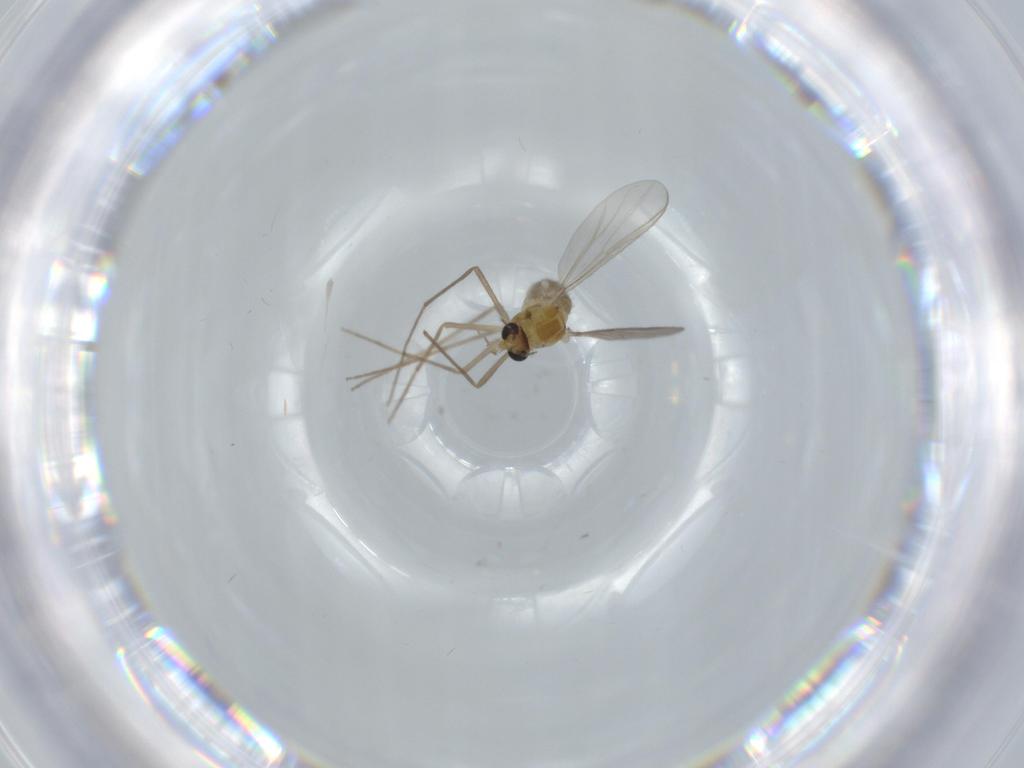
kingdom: Animalia
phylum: Arthropoda
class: Insecta
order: Diptera
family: Chironomidae
